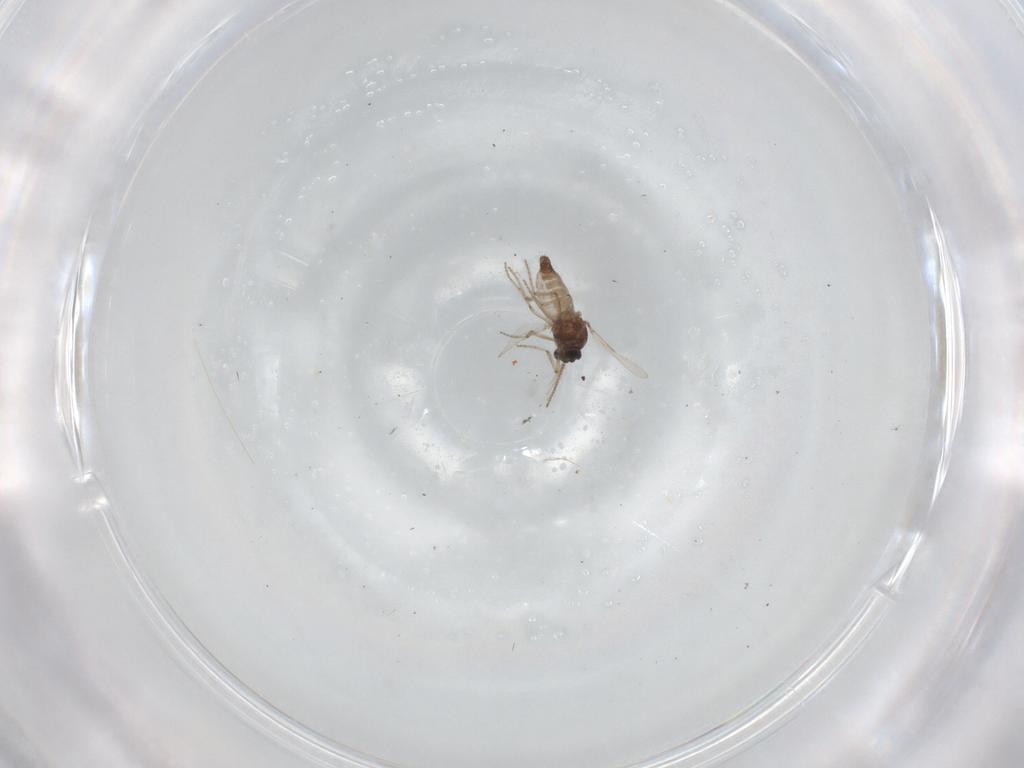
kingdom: Animalia
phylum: Arthropoda
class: Insecta
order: Diptera
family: Ceratopogonidae
